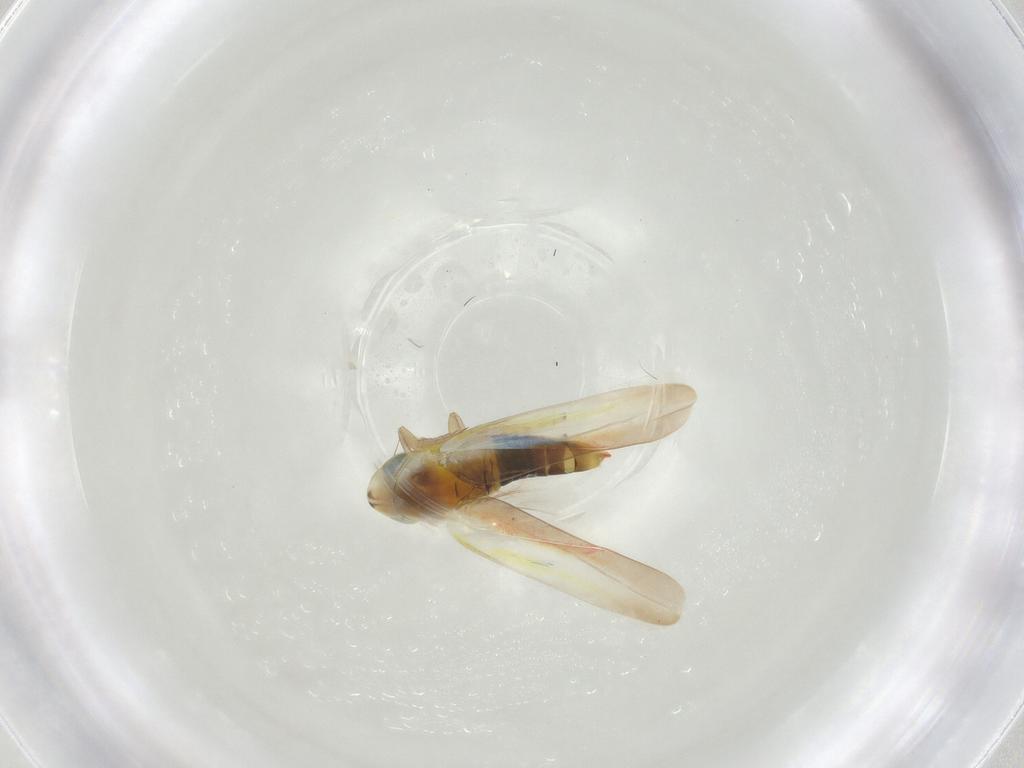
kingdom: Animalia
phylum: Arthropoda
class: Insecta
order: Hemiptera
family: Cicadellidae
